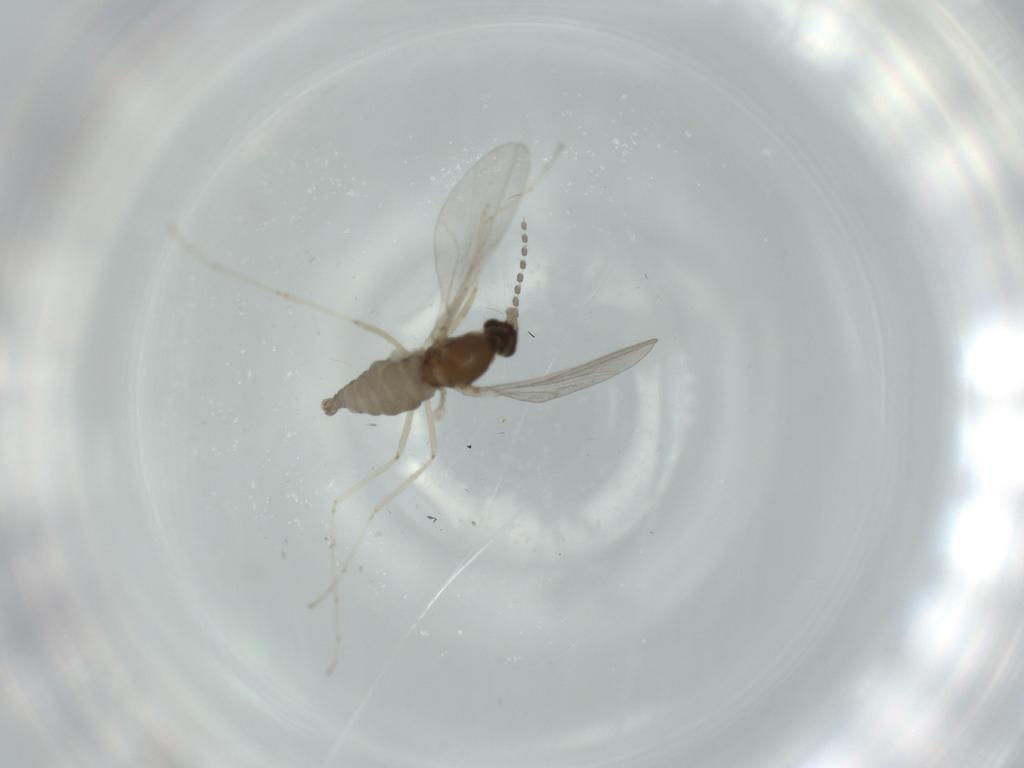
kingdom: Animalia
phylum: Arthropoda
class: Insecta
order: Diptera
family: Cecidomyiidae
